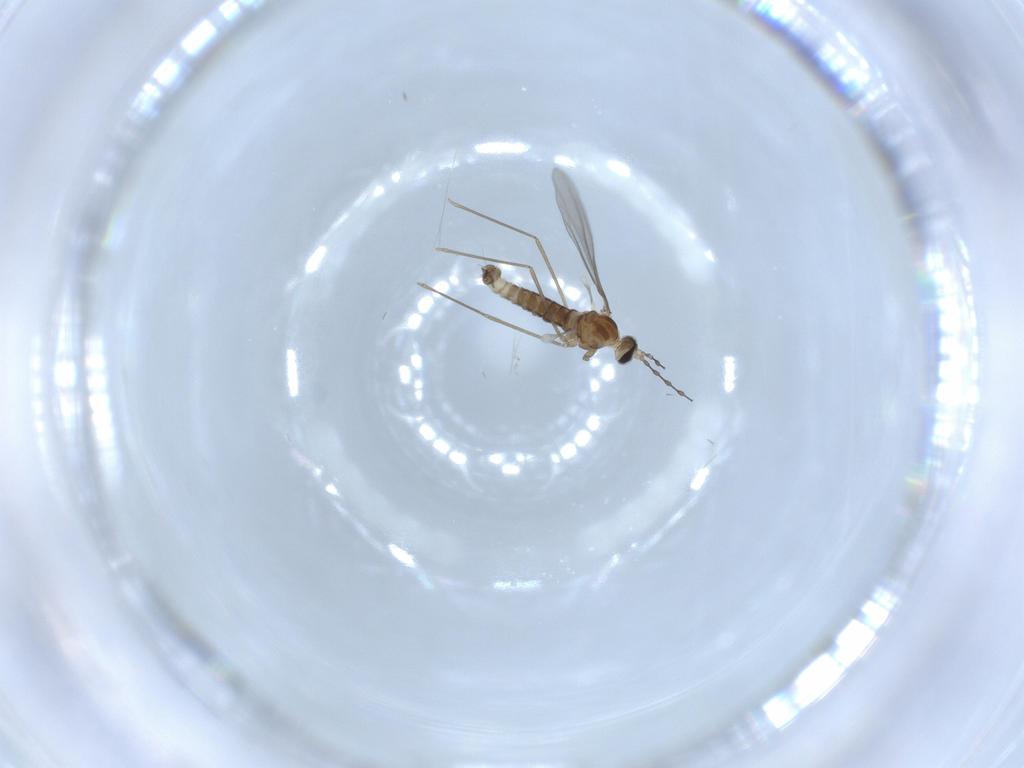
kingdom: Animalia
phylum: Arthropoda
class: Insecta
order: Diptera
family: Cecidomyiidae
